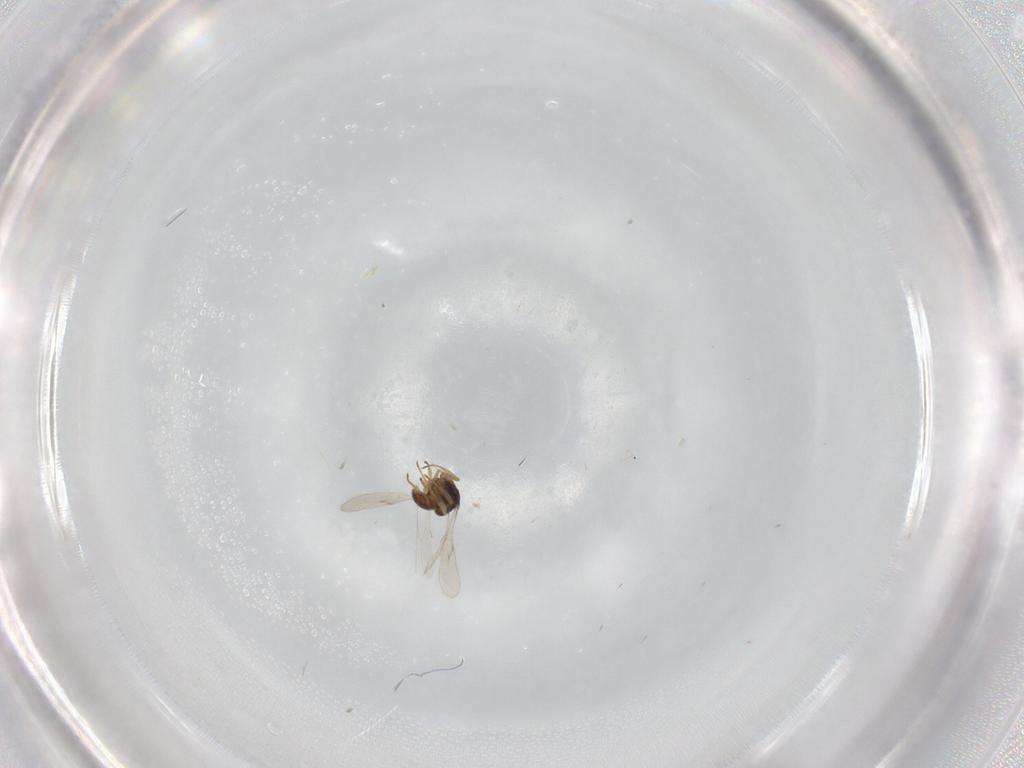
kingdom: Animalia
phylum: Arthropoda
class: Insecta
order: Hymenoptera
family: Scelionidae
